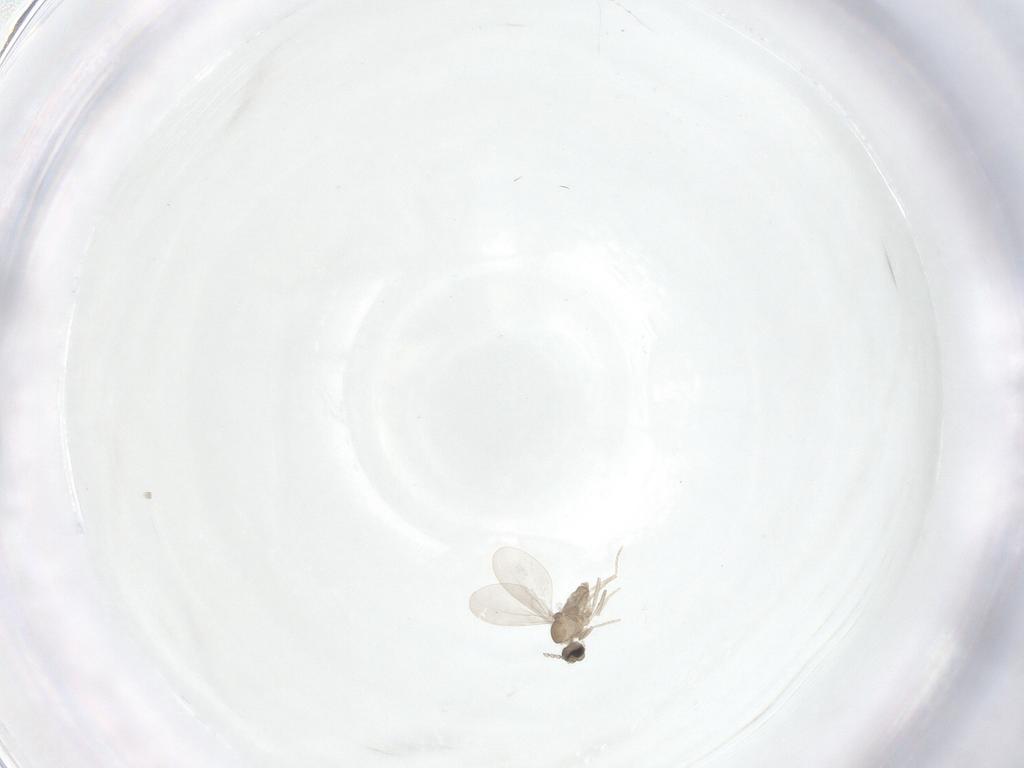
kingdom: Animalia
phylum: Arthropoda
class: Insecta
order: Diptera
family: Cecidomyiidae
